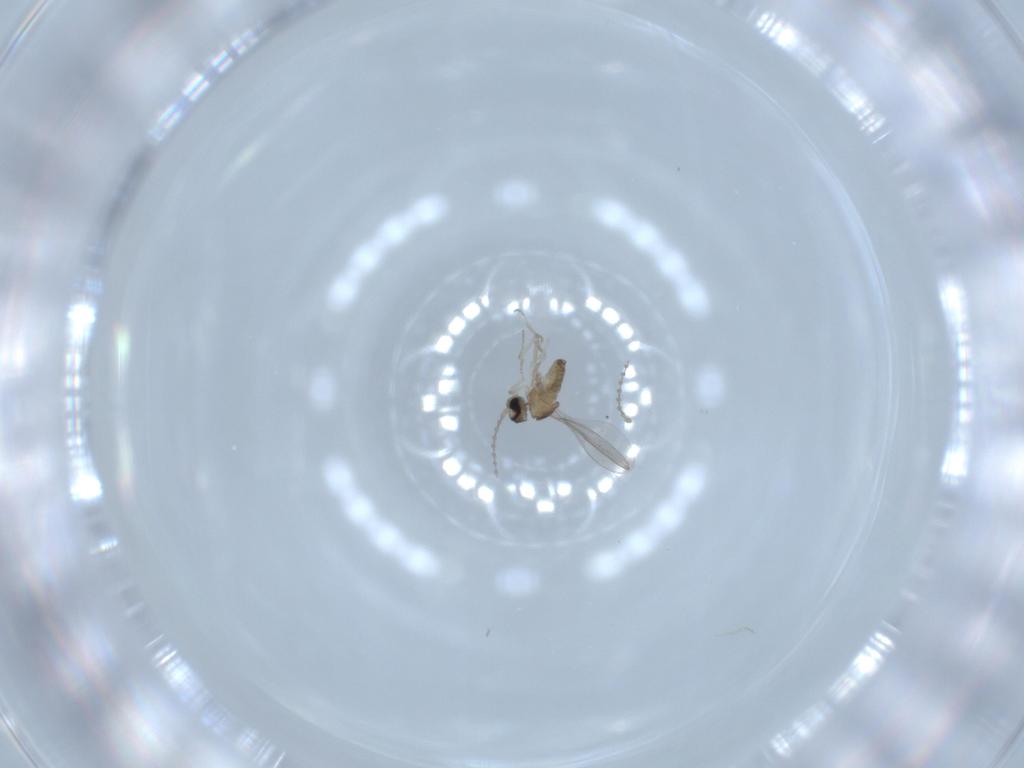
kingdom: Animalia
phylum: Arthropoda
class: Insecta
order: Diptera
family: Cecidomyiidae
